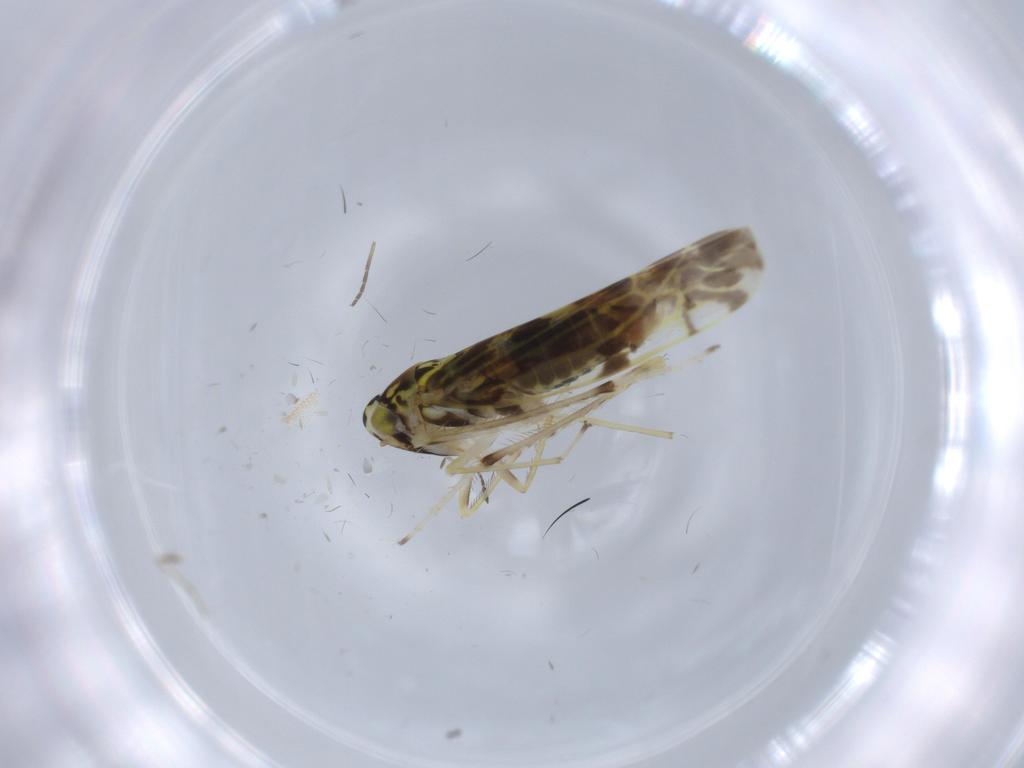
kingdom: Animalia
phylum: Arthropoda
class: Insecta
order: Hemiptera
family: Cicadellidae
